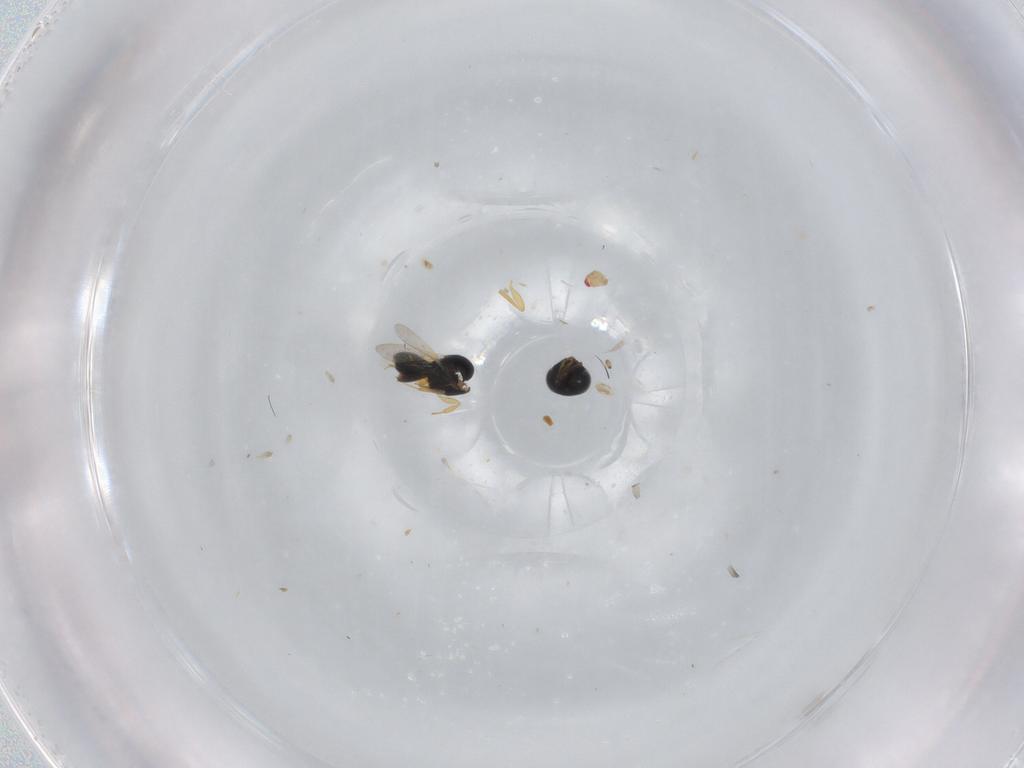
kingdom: Animalia
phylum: Arthropoda
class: Insecta
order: Hymenoptera
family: Scelionidae
